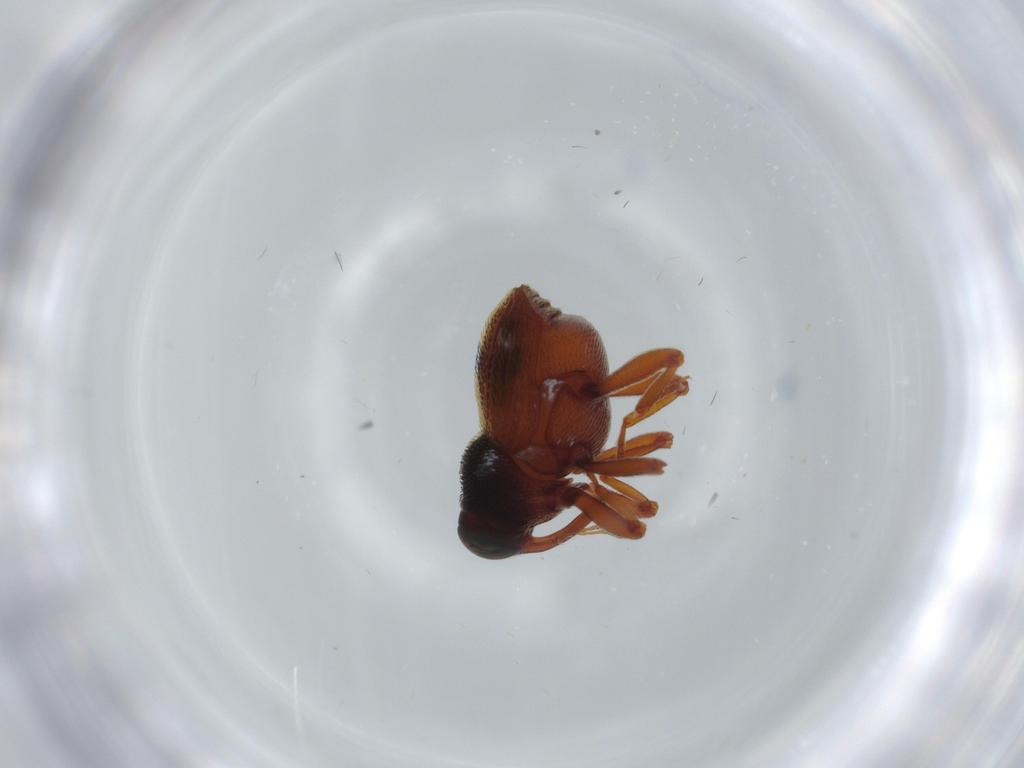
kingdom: Animalia
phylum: Arthropoda
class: Insecta
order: Coleoptera
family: Curculionidae
